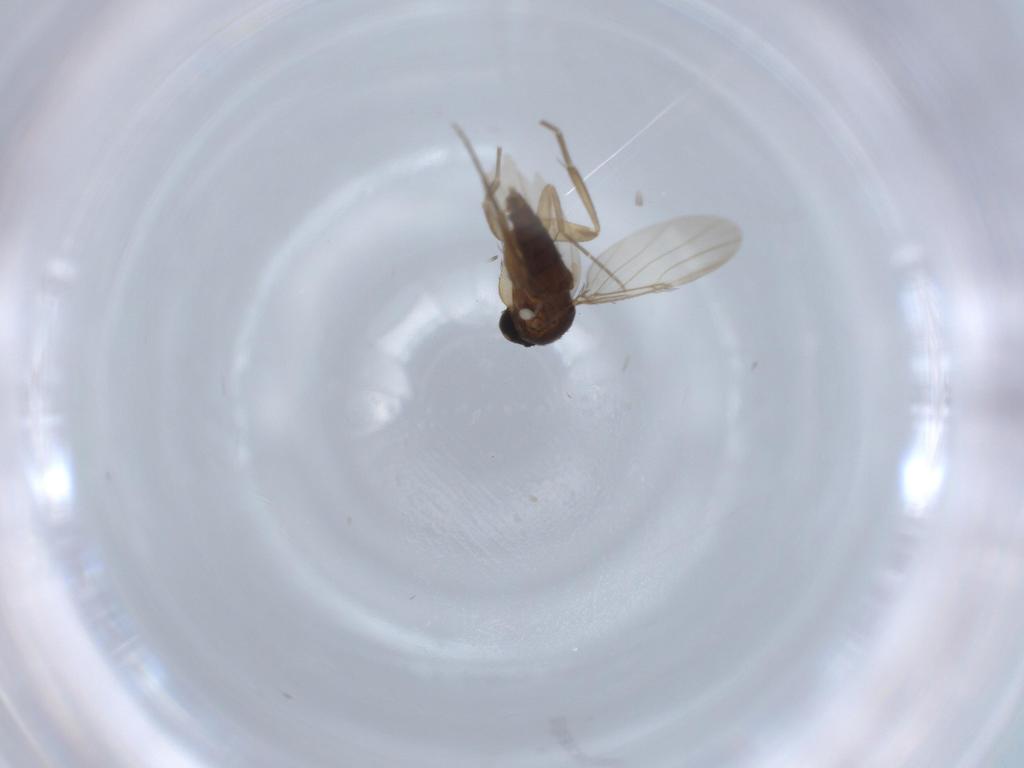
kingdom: Animalia
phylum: Arthropoda
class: Insecta
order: Diptera
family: Phoridae
